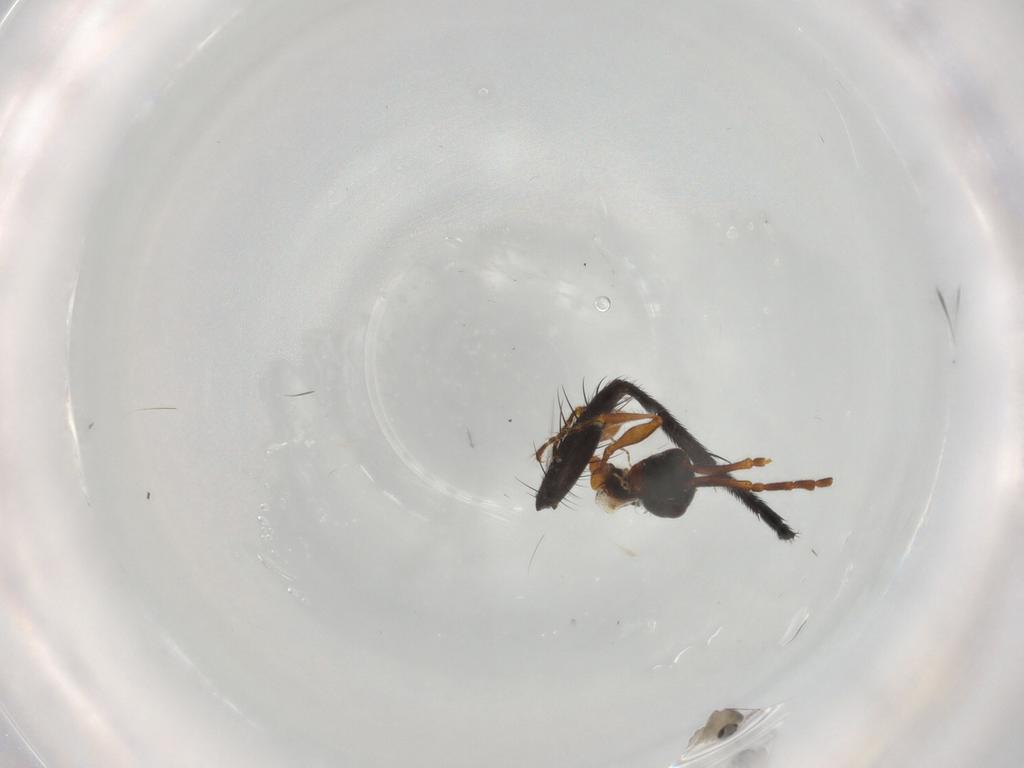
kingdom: Animalia
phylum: Arthropoda
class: Insecta
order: Diptera
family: Anthomyiidae
